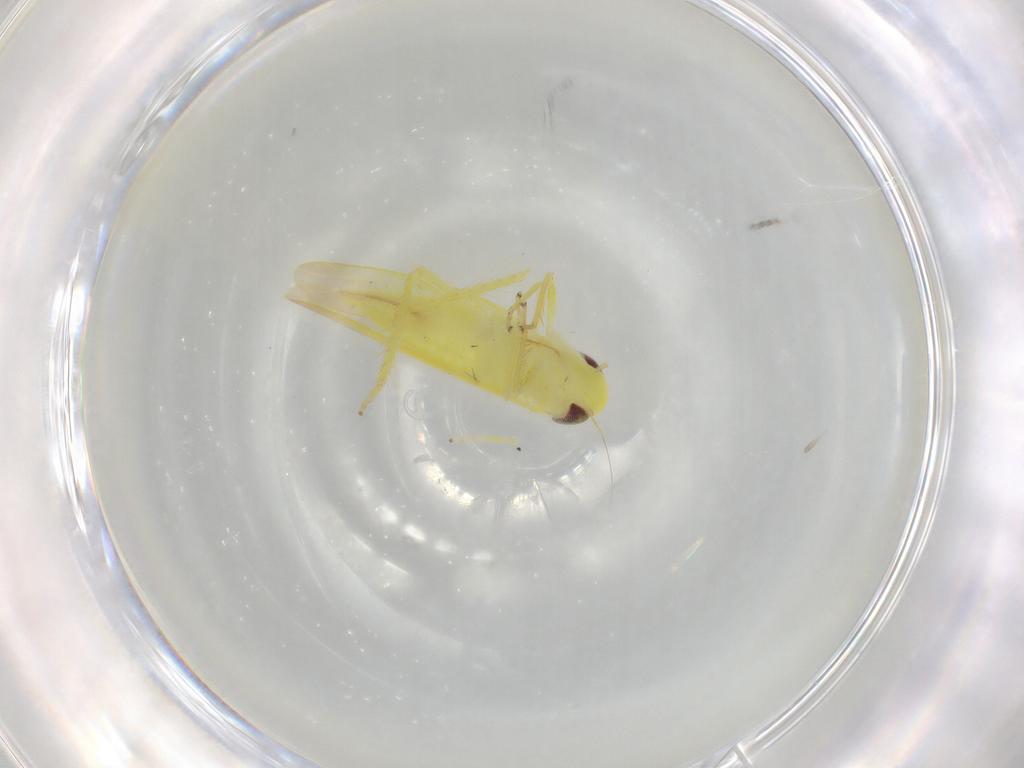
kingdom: Animalia
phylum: Arthropoda
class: Insecta
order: Hemiptera
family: Cicadellidae
